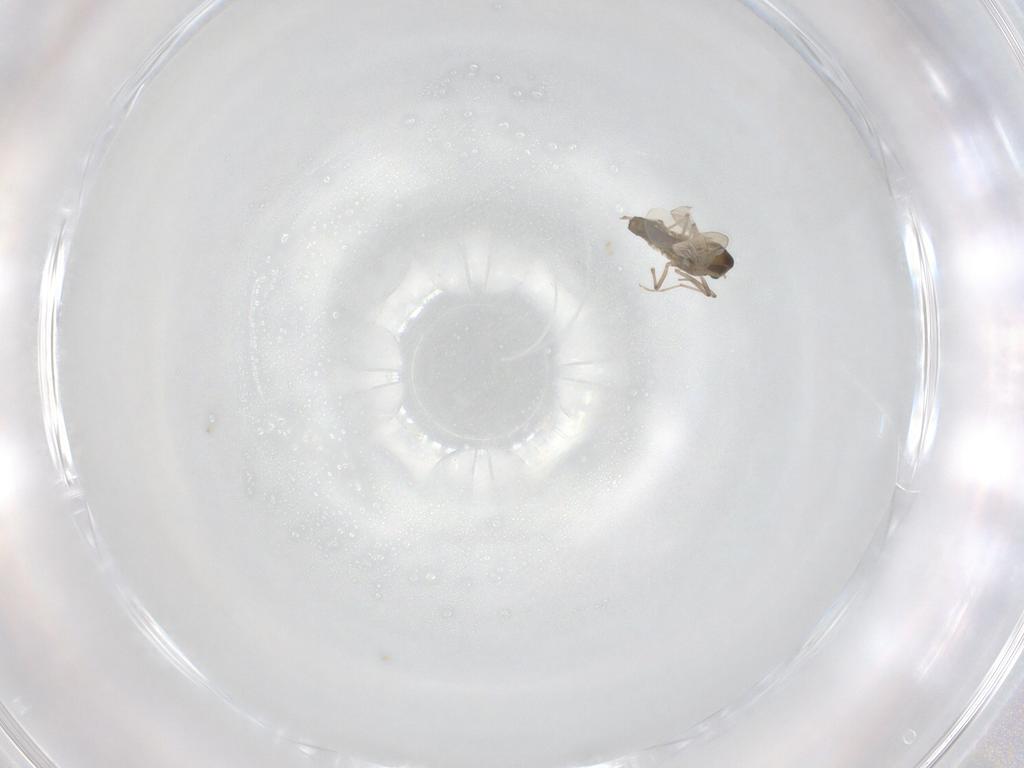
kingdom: Animalia
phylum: Arthropoda
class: Insecta
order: Diptera
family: Chironomidae
